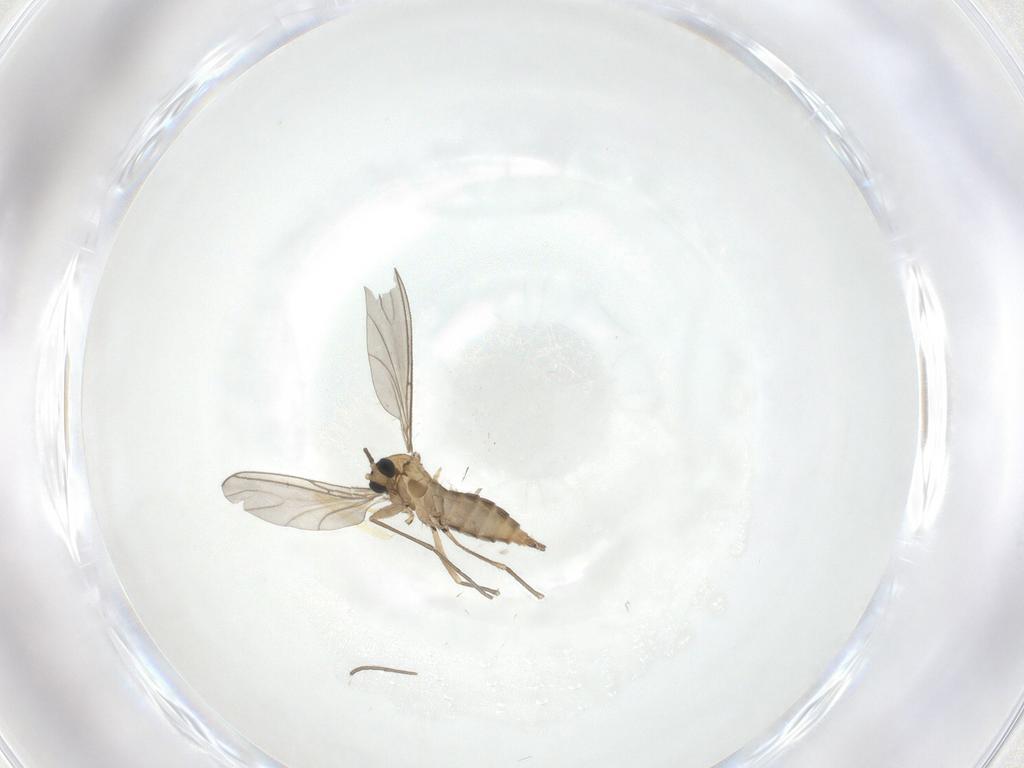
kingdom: Animalia
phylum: Arthropoda
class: Insecta
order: Diptera
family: Sciaridae
